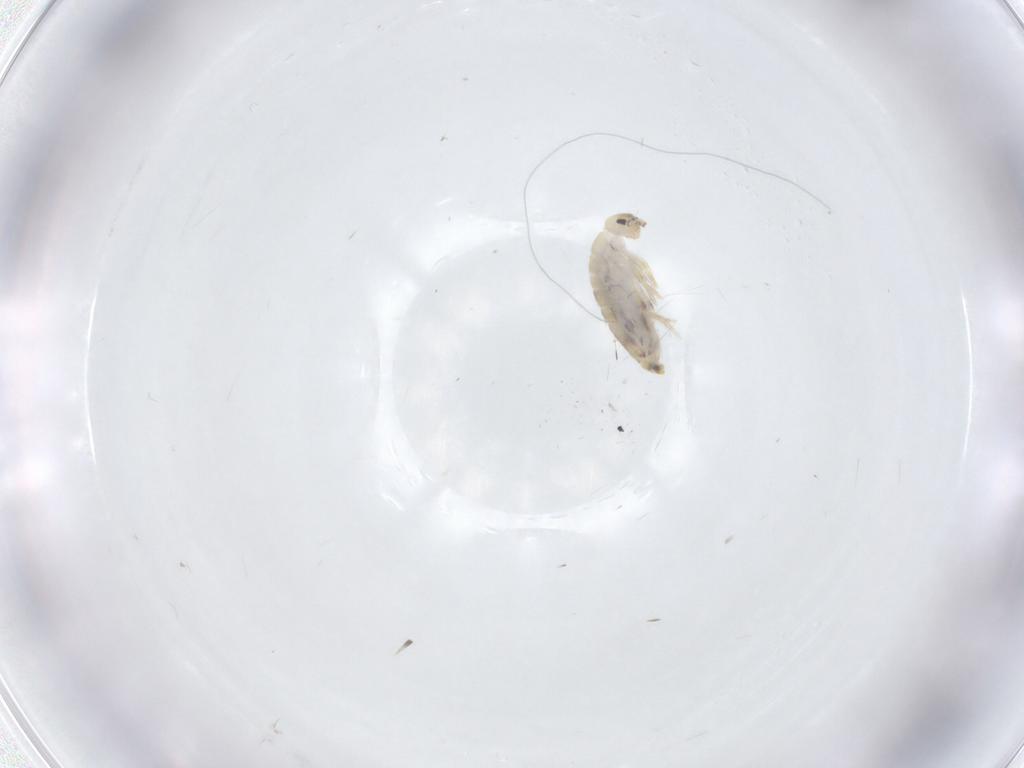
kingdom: Animalia
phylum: Arthropoda
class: Collembola
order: Entomobryomorpha
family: Entomobryidae
